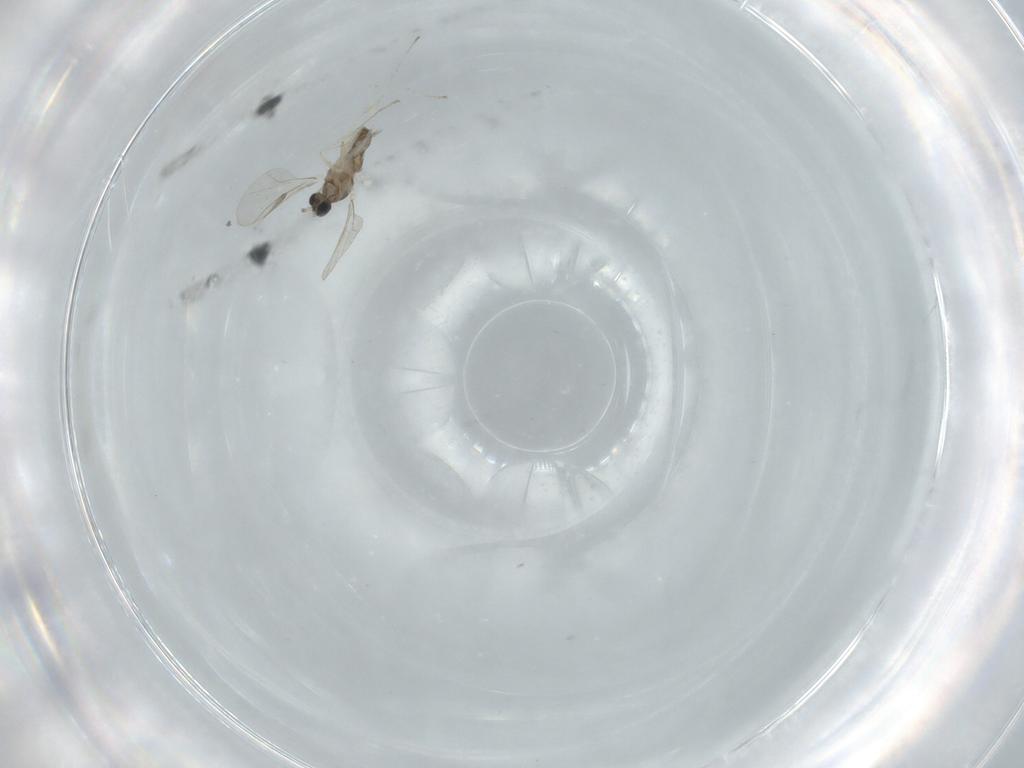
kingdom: Animalia
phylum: Arthropoda
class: Insecta
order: Diptera
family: Cecidomyiidae
